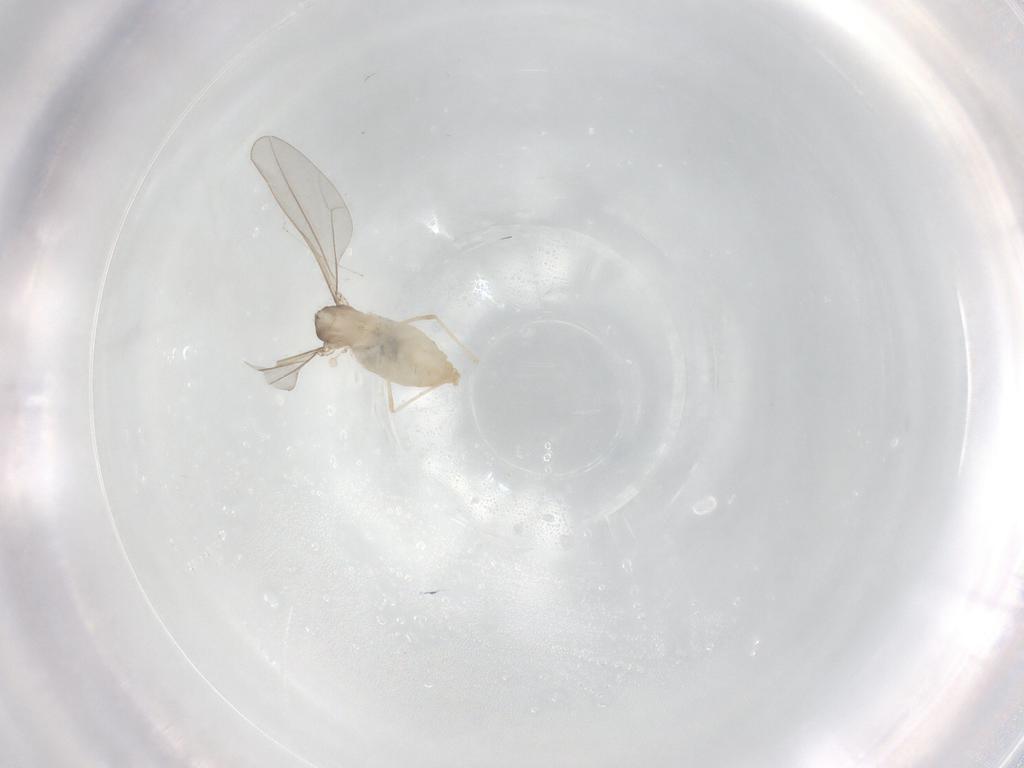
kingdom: Animalia
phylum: Arthropoda
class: Insecta
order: Diptera
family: Cecidomyiidae
